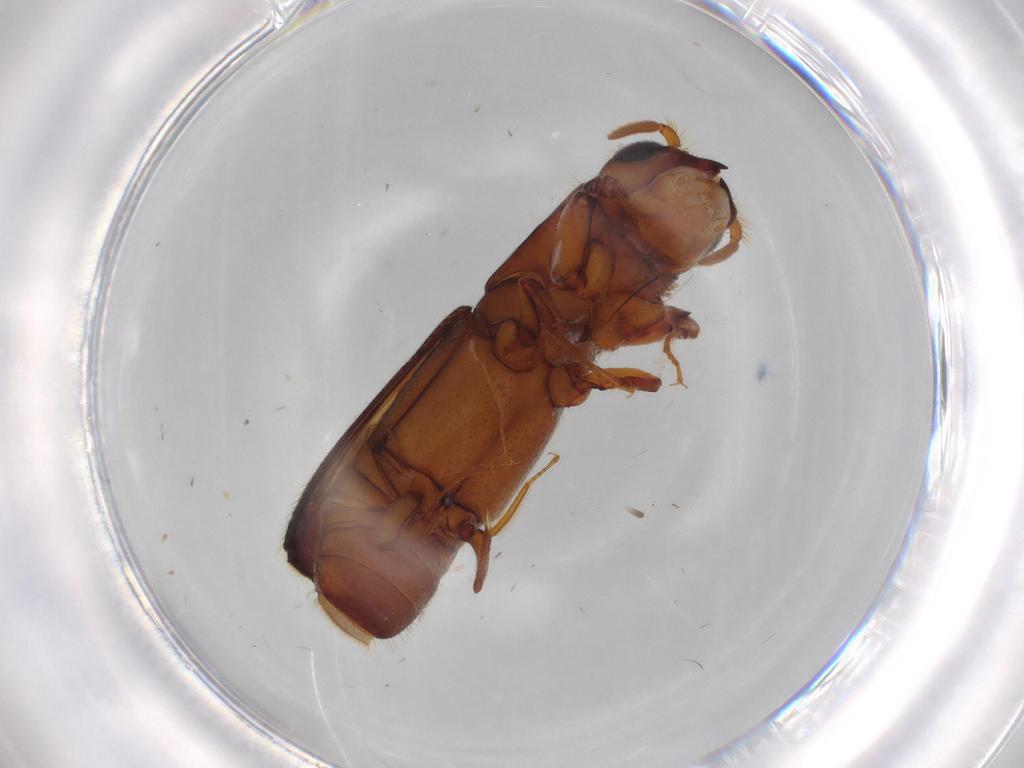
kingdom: Animalia
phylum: Arthropoda
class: Insecta
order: Coleoptera
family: Curculionidae
